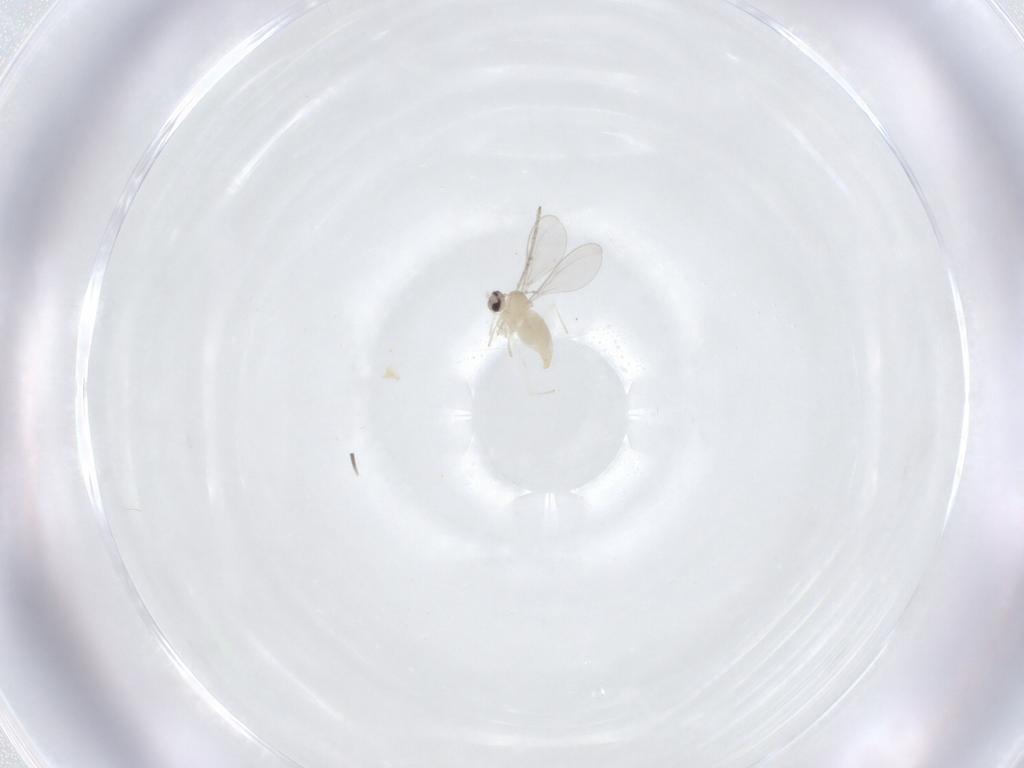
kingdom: Animalia
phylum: Arthropoda
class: Insecta
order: Diptera
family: Cecidomyiidae
